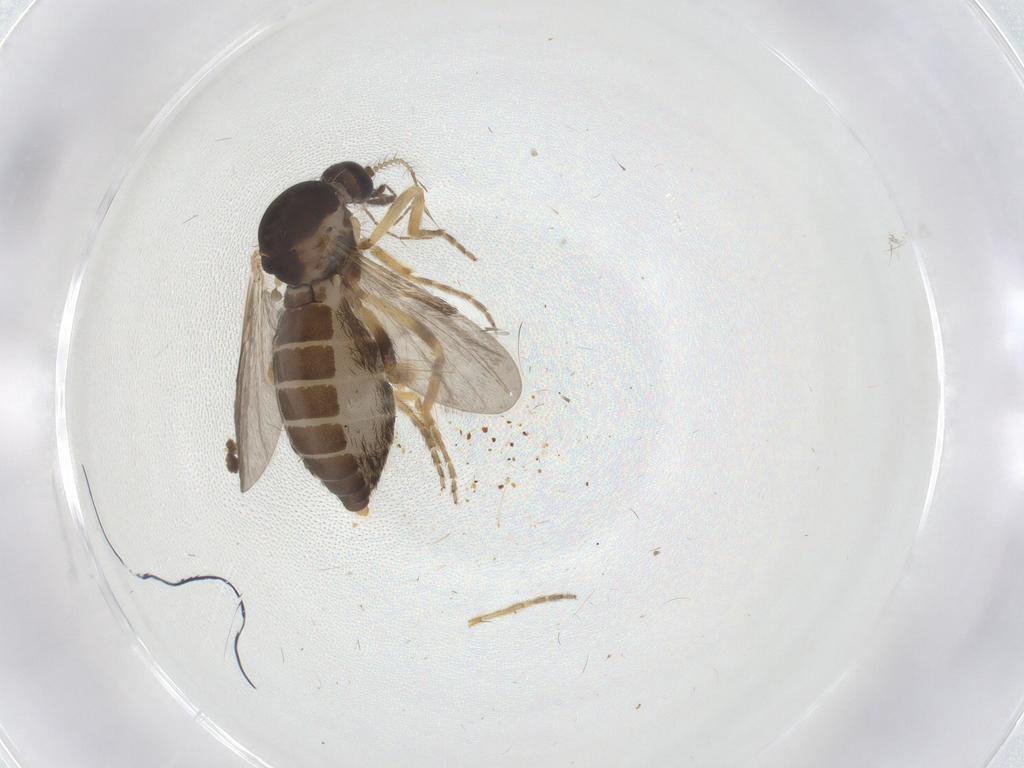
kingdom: Animalia
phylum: Arthropoda
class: Insecta
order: Diptera
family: Ceratopogonidae
